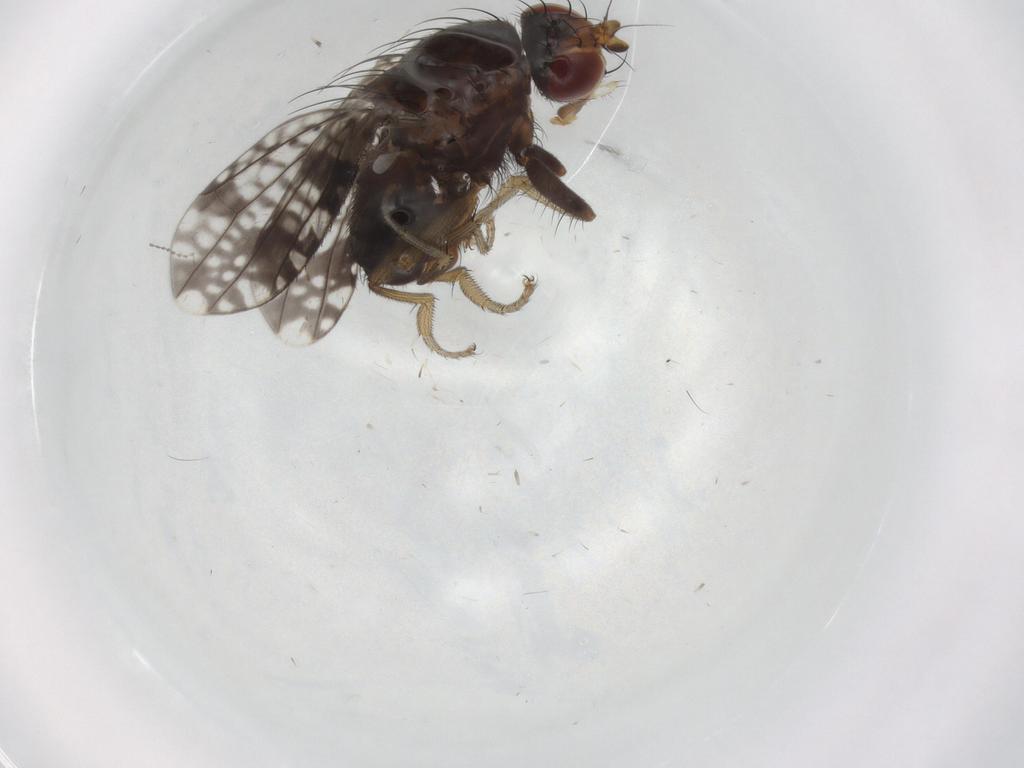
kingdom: Animalia
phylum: Arthropoda
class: Insecta
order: Diptera
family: Tephritidae
